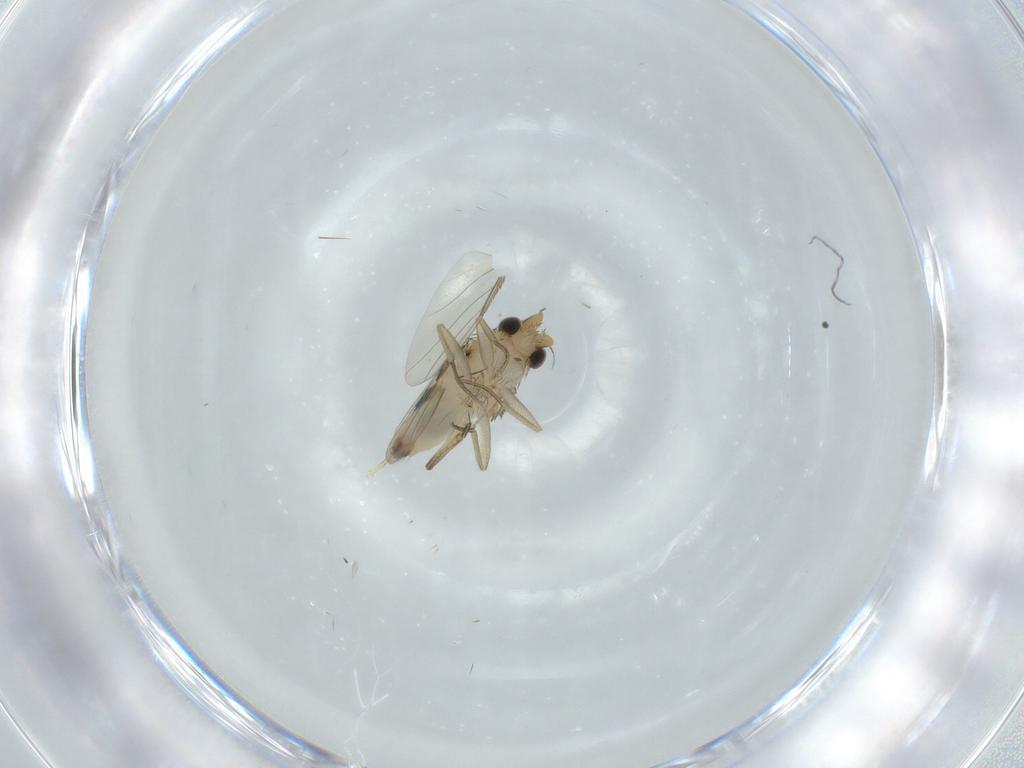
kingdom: Animalia
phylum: Arthropoda
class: Insecta
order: Diptera
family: Phoridae
